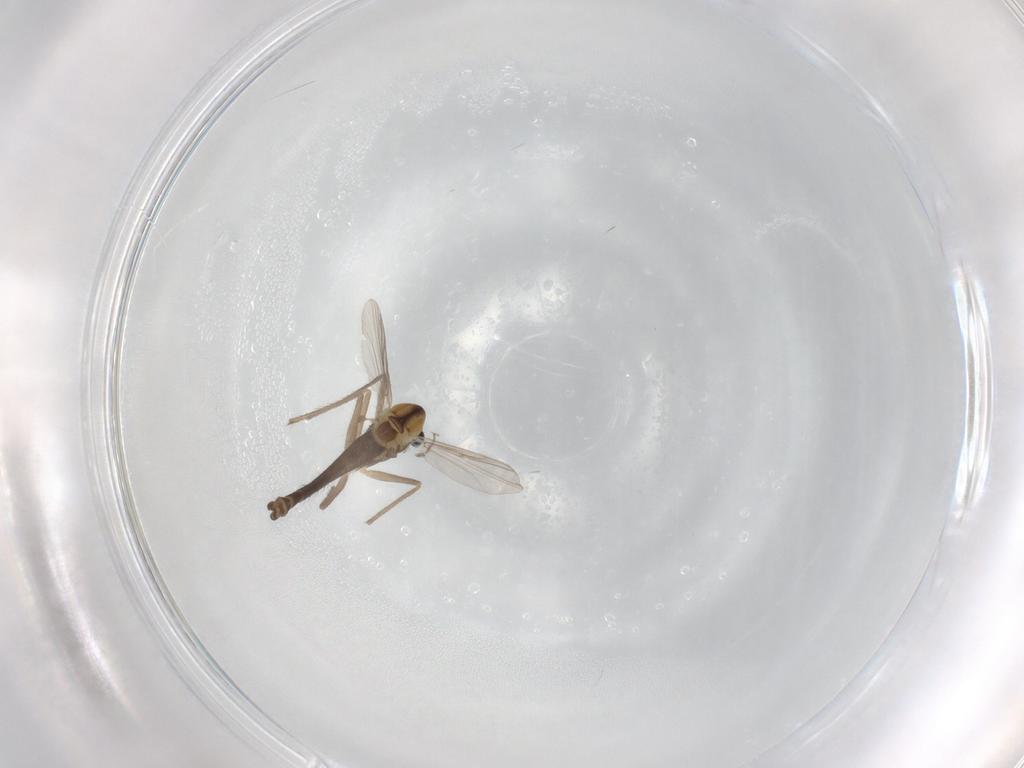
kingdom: Animalia
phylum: Arthropoda
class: Insecta
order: Diptera
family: Chironomidae
